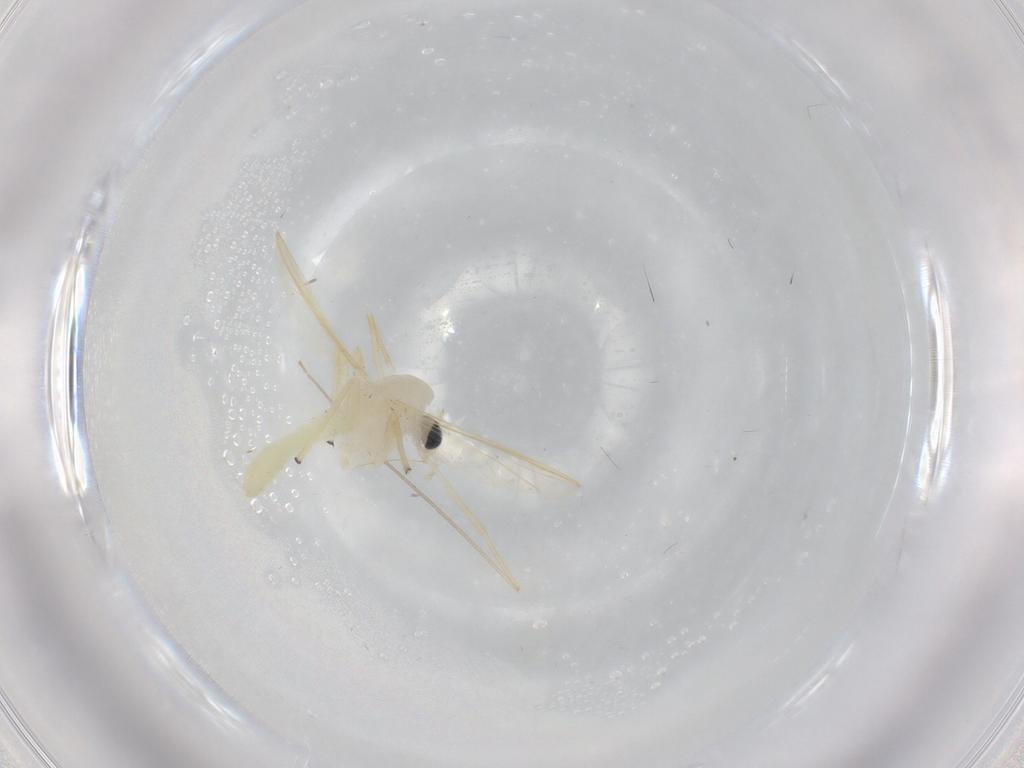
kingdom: Animalia
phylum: Arthropoda
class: Insecta
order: Diptera
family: Chironomidae
